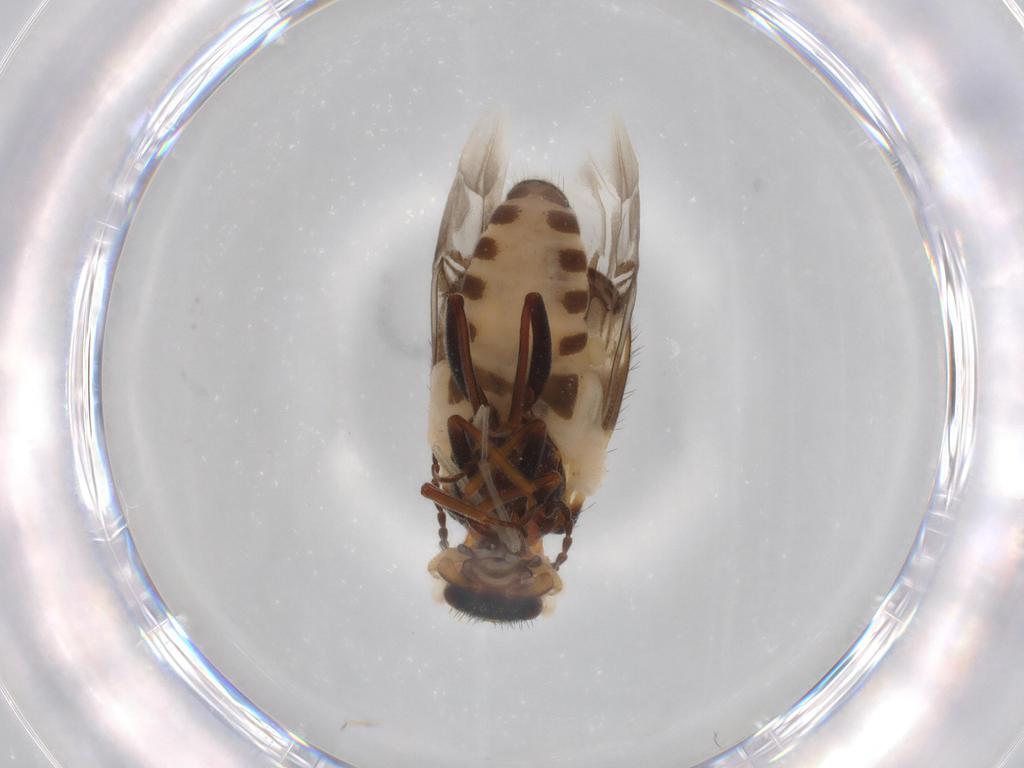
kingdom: Animalia
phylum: Arthropoda
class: Insecta
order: Coleoptera
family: Melyridae
